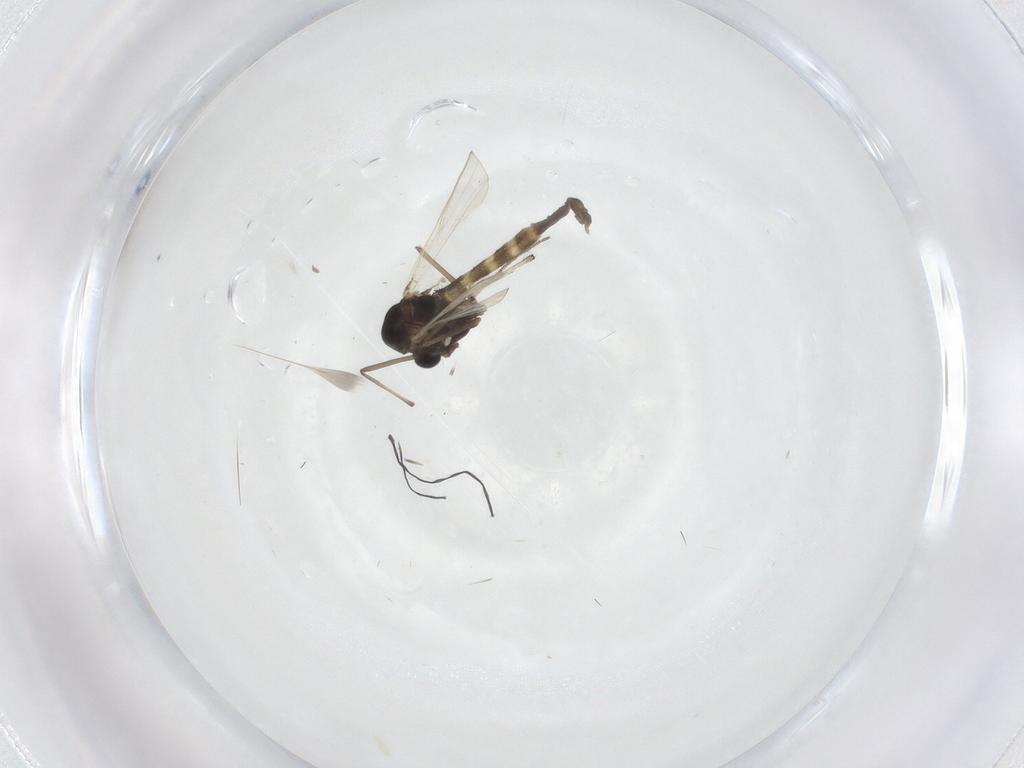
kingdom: Animalia
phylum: Arthropoda
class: Insecta
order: Diptera
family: Chironomidae
